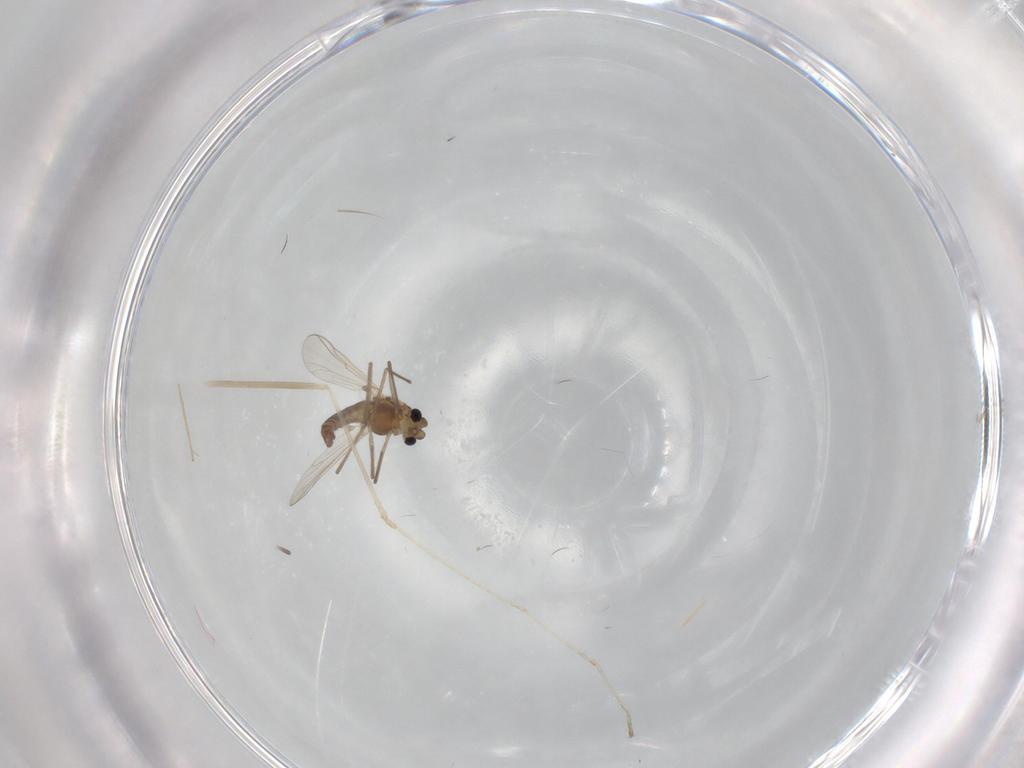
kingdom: Animalia
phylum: Arthropoda
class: Insecta
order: Diptera
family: Chironomidae
